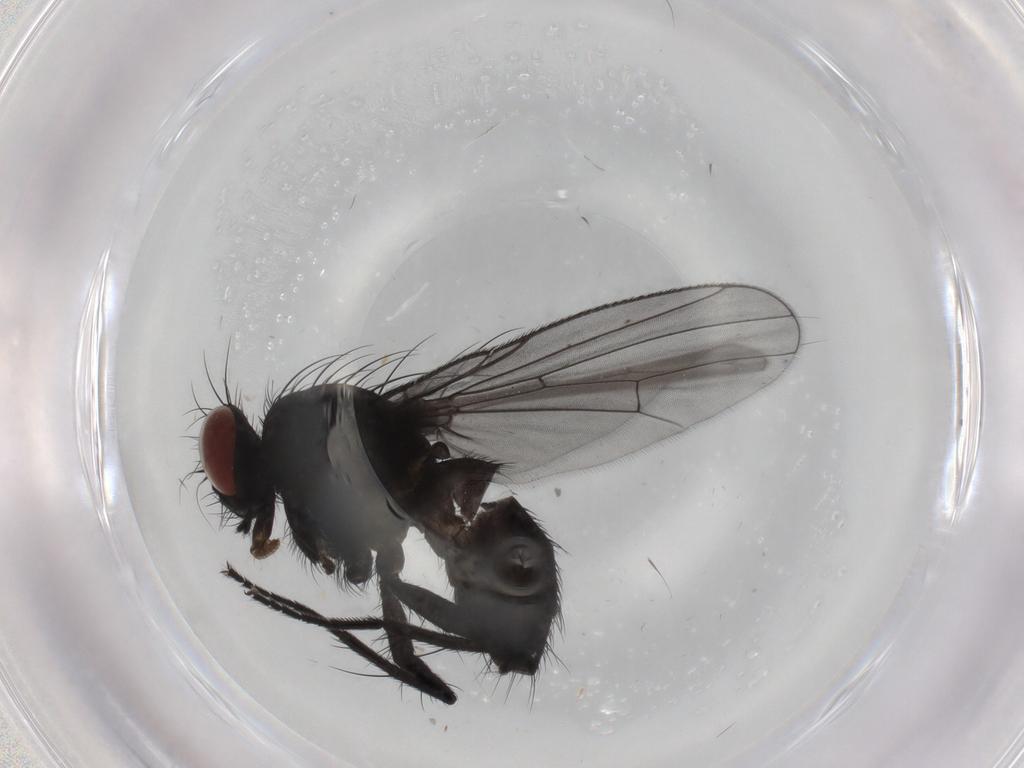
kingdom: Animalia
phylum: Arthropoda
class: Insecta
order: Diptera
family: Muscidae
